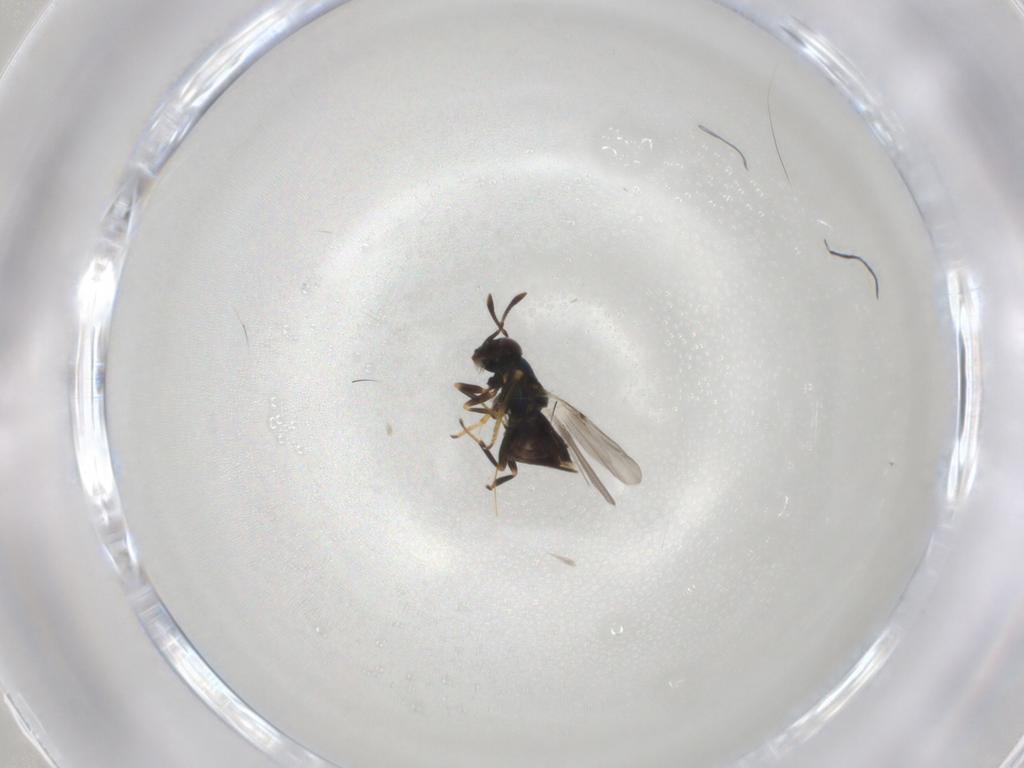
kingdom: Animalia
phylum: Arthropoda
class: Insecta
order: Hymenoptera
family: Encyrtidae
